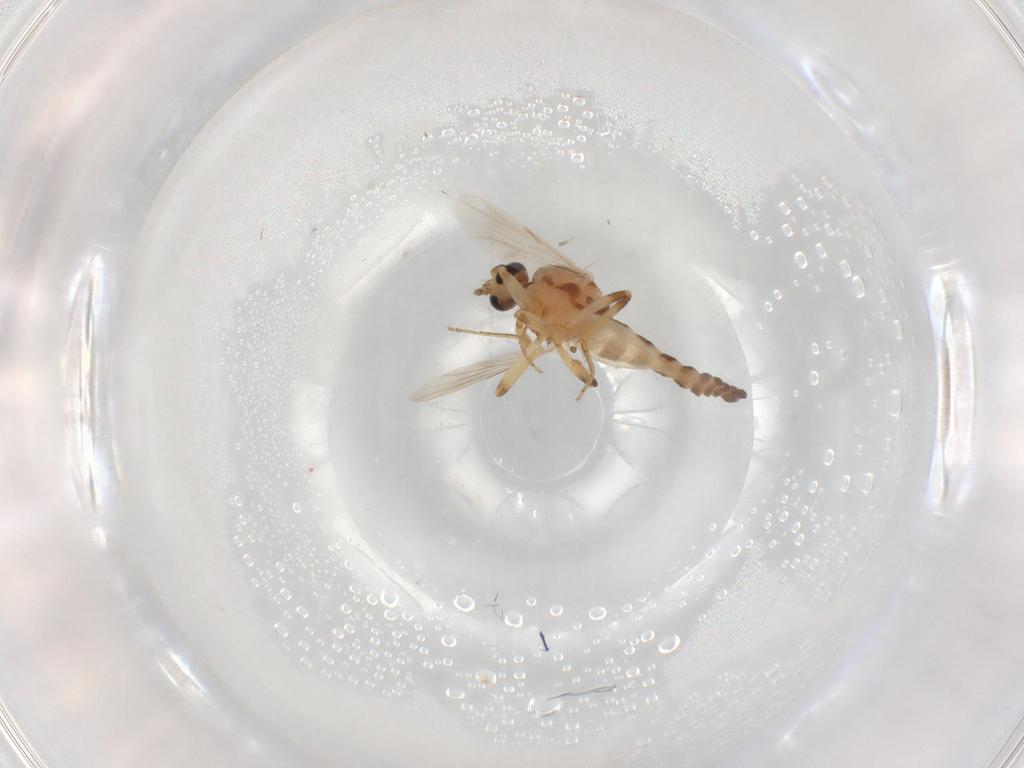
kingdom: Animalia
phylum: Arthropoda
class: Insecta
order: Diptera
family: Ceratopogonidae
